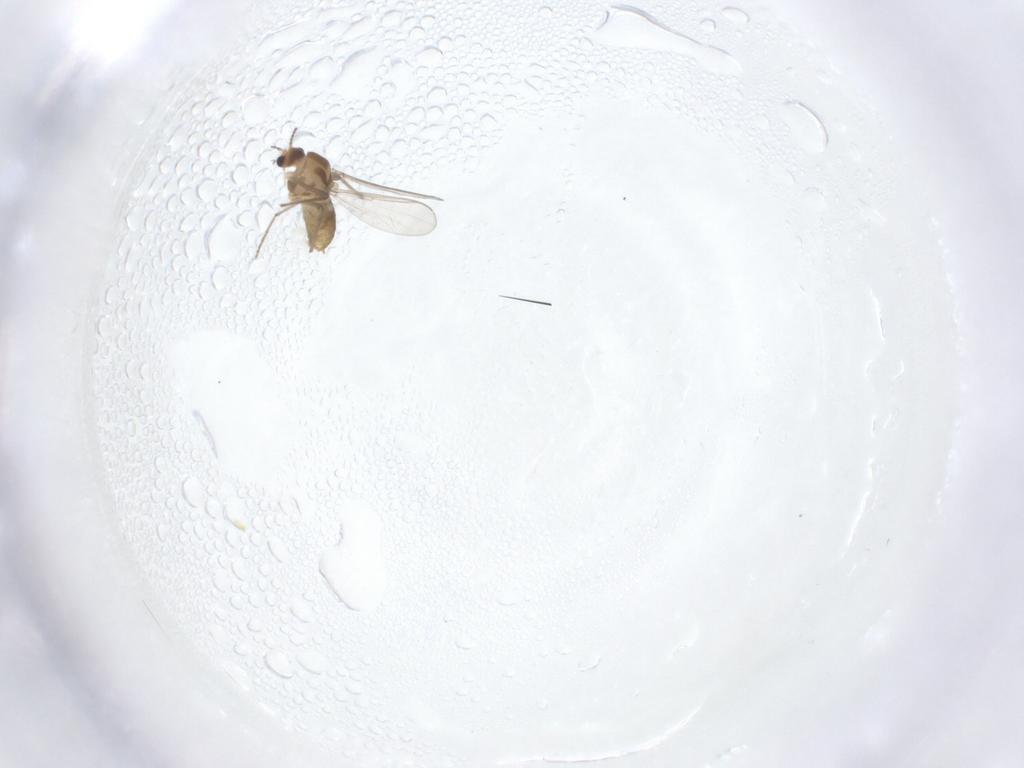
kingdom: Animalia
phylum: Arthropoda
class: Insecta
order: Diptera
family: Chironomidae
